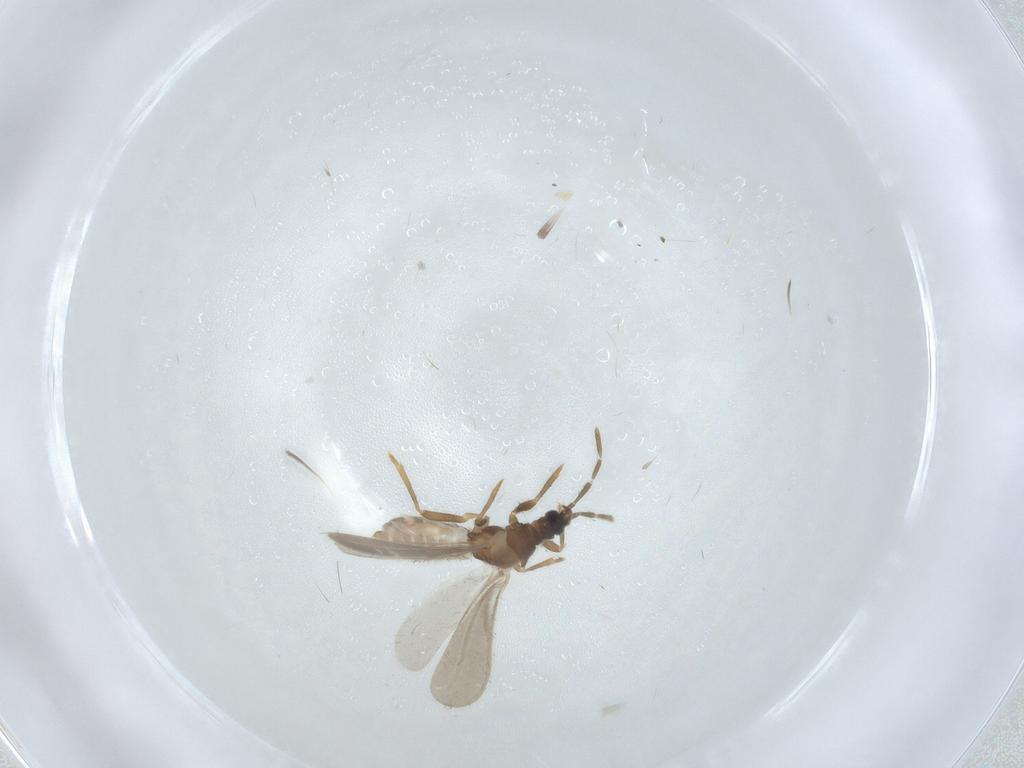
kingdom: Animalia
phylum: Arthropoda
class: Insecta
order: Hemiptera
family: Enicocephalidae
